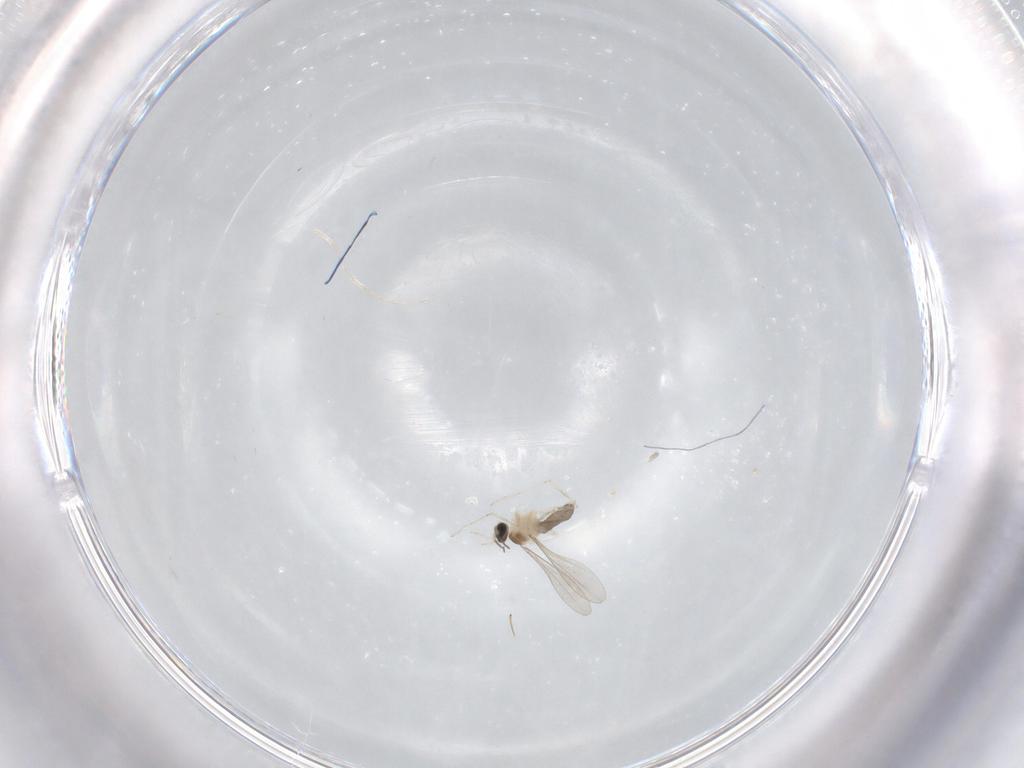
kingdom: Animalia
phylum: Arthropoda
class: Insecta
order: Diptera
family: Cecidomyiidae
